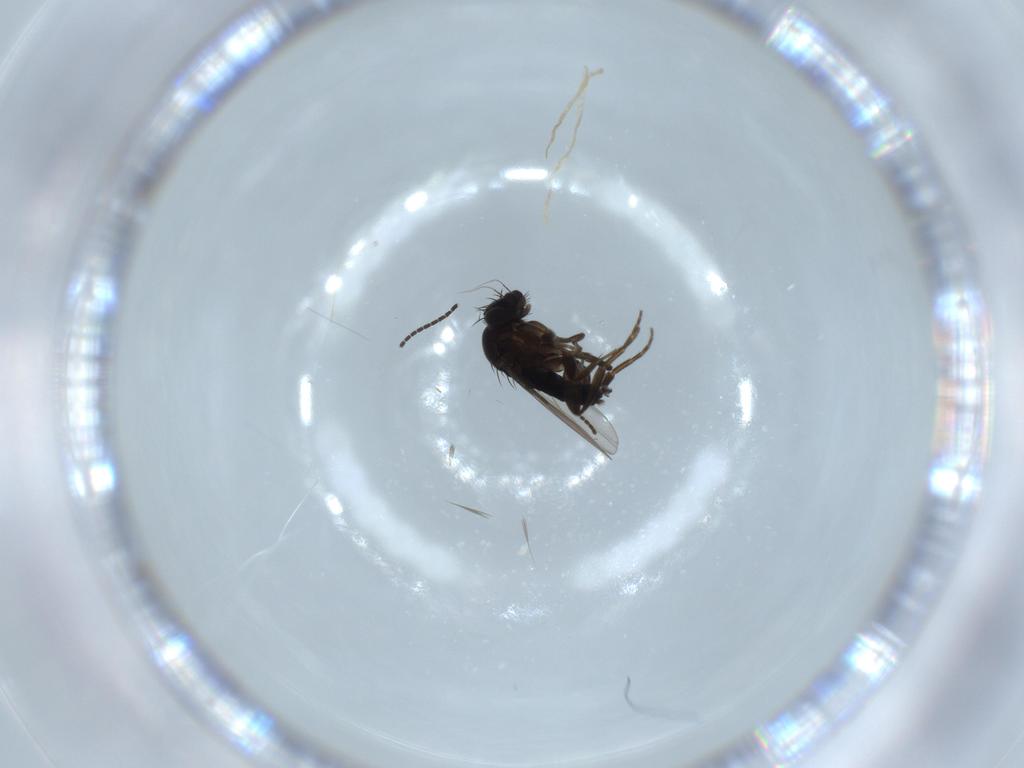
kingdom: Animalia
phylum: Arthropoda
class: Insecta
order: Diptera
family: Phoridae
